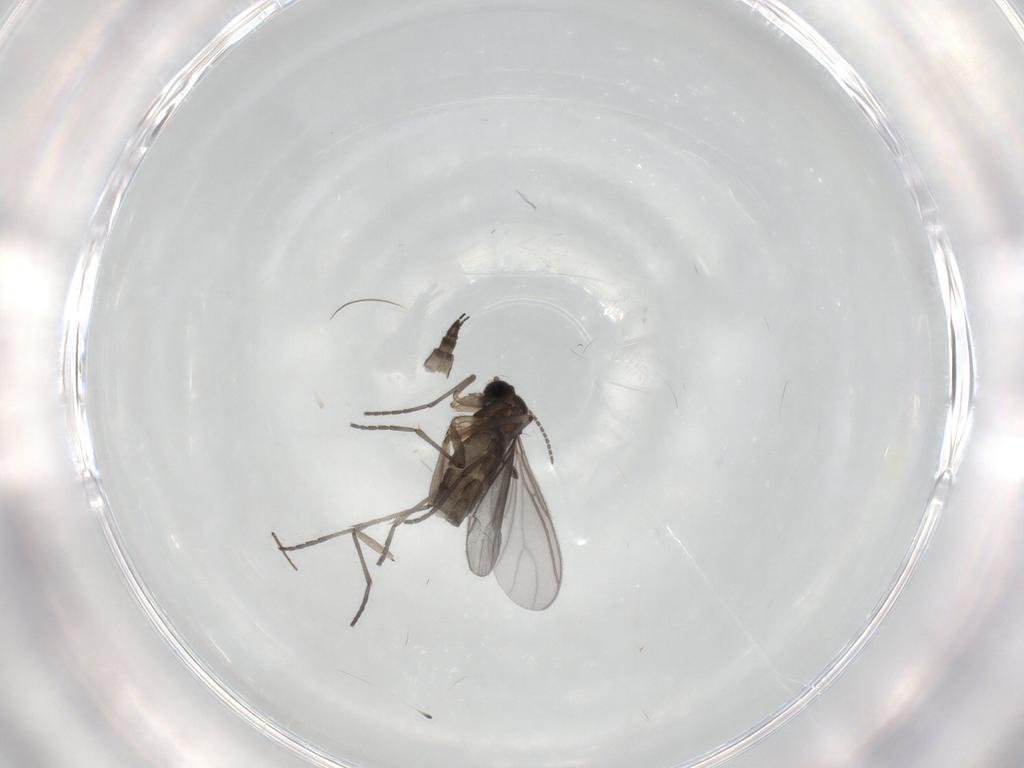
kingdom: Animalia
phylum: Arthropoda
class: Insecta
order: Diptera
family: Sciaridae
